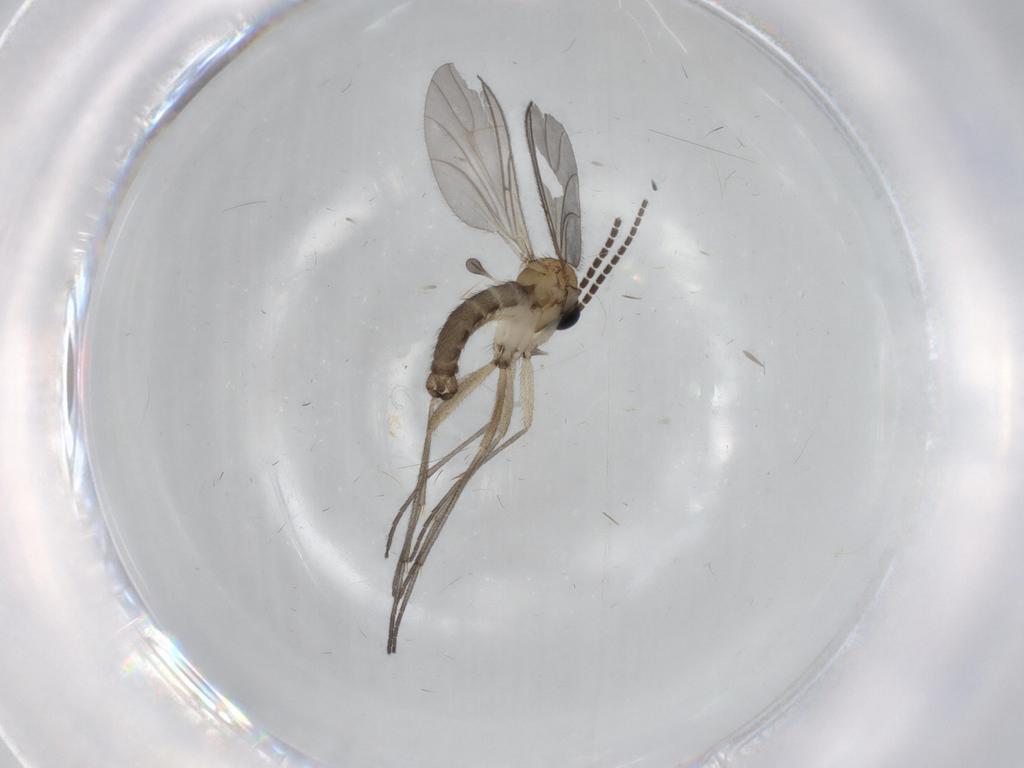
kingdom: Animalia
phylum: Arthropoda
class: Insecta
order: Diptera
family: Sciaridae
